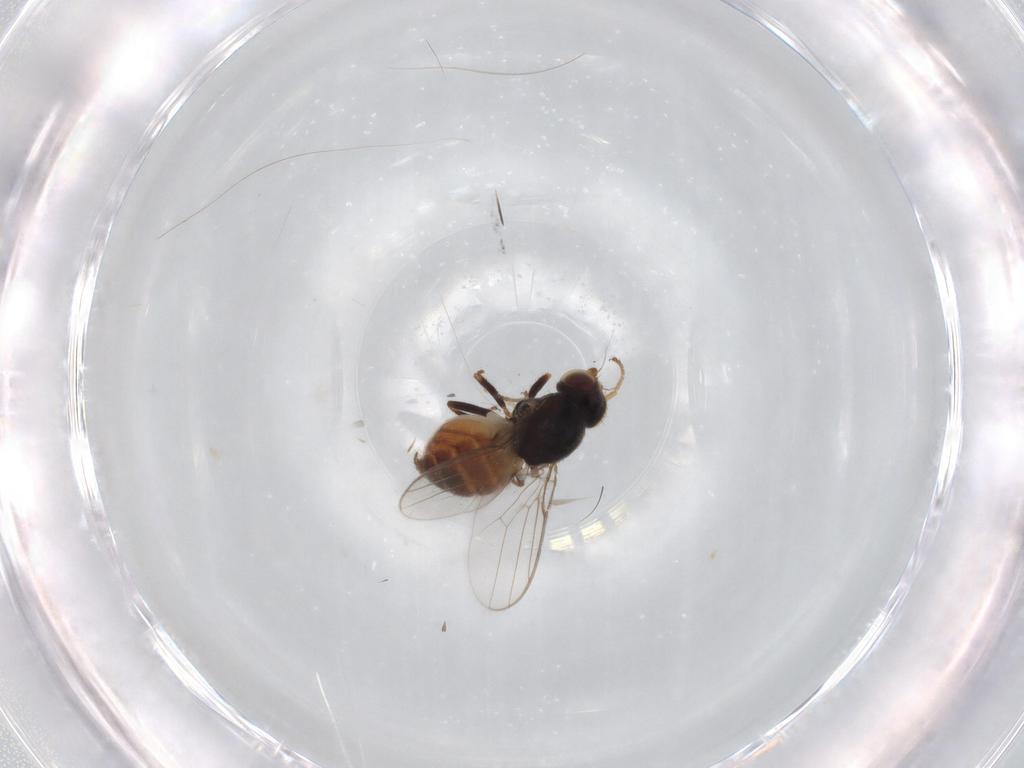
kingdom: Animalia
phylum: Arthropoda
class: Insecta
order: Diptera
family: Chloropidae
